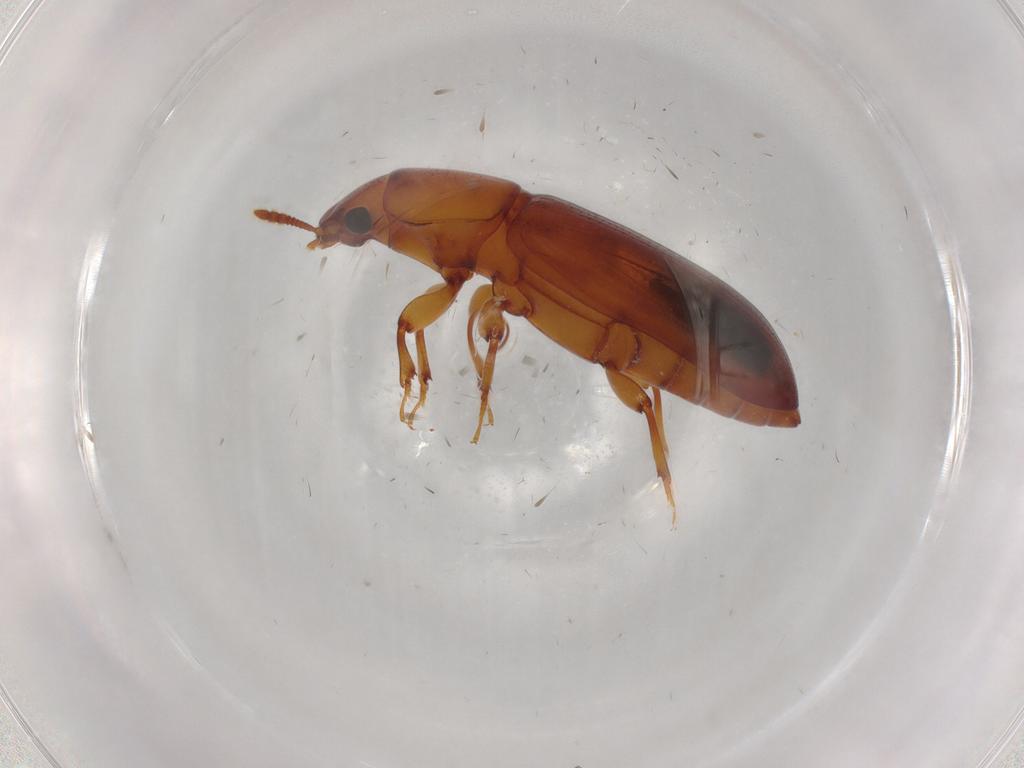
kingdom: Animalia
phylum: Arthropoda
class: Insecta
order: Coleoptera
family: Salpingidae
